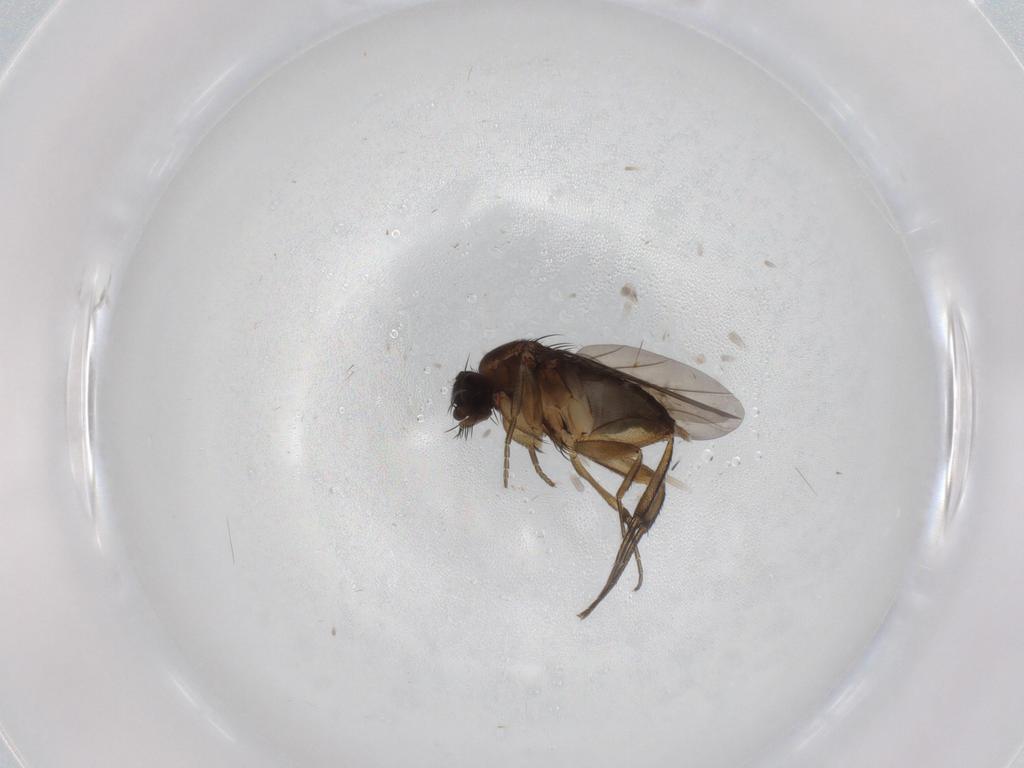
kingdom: Animalia
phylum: Arthropoda
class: Insecta
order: Diptera
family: Phoridae
